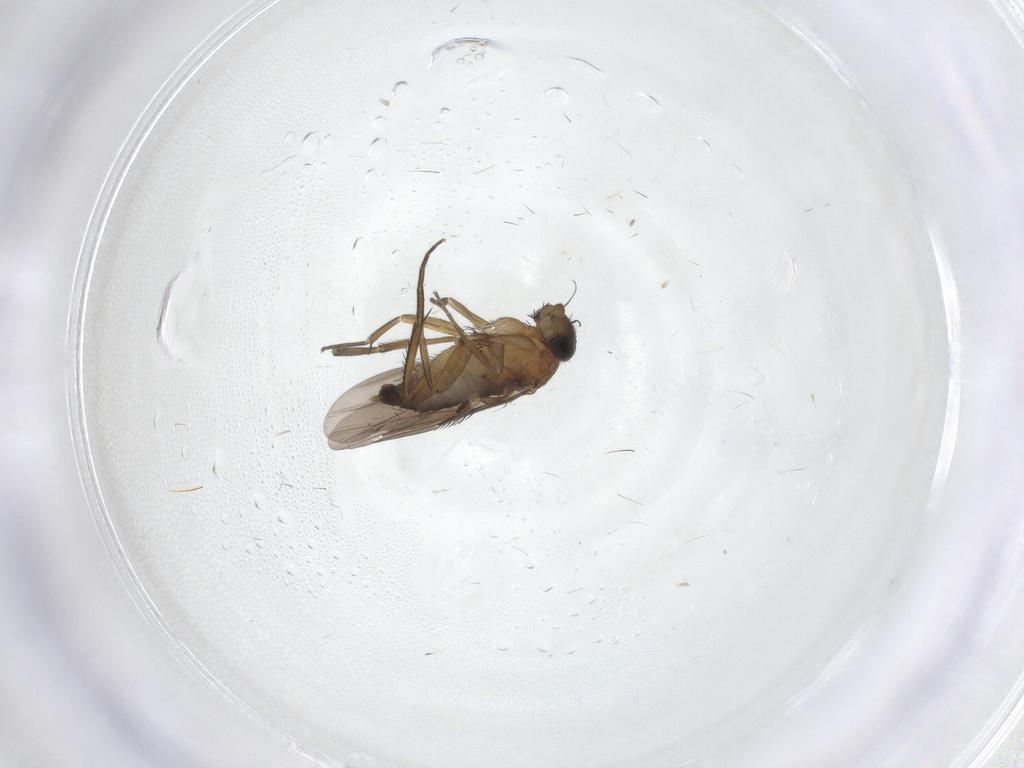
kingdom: Animalia
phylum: Arthropoda
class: Insecta
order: Diptera
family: Phoridae
